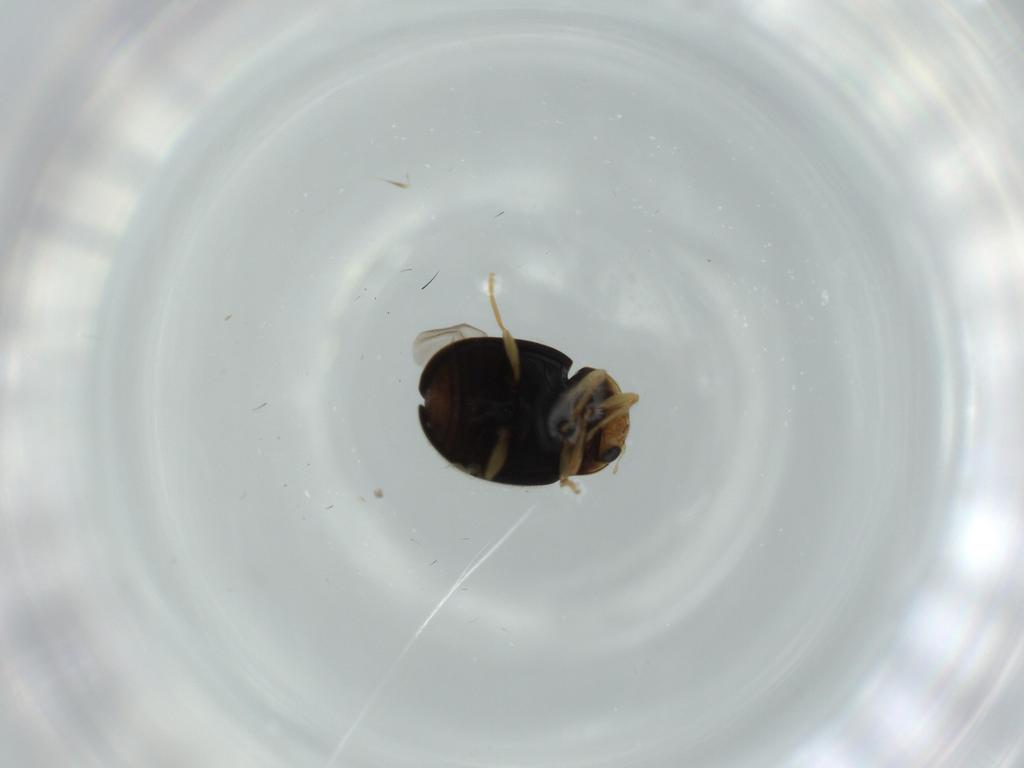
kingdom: Animalia
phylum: Arthropoda
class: Insecta
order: Coleoptera
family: Coccinellidae
